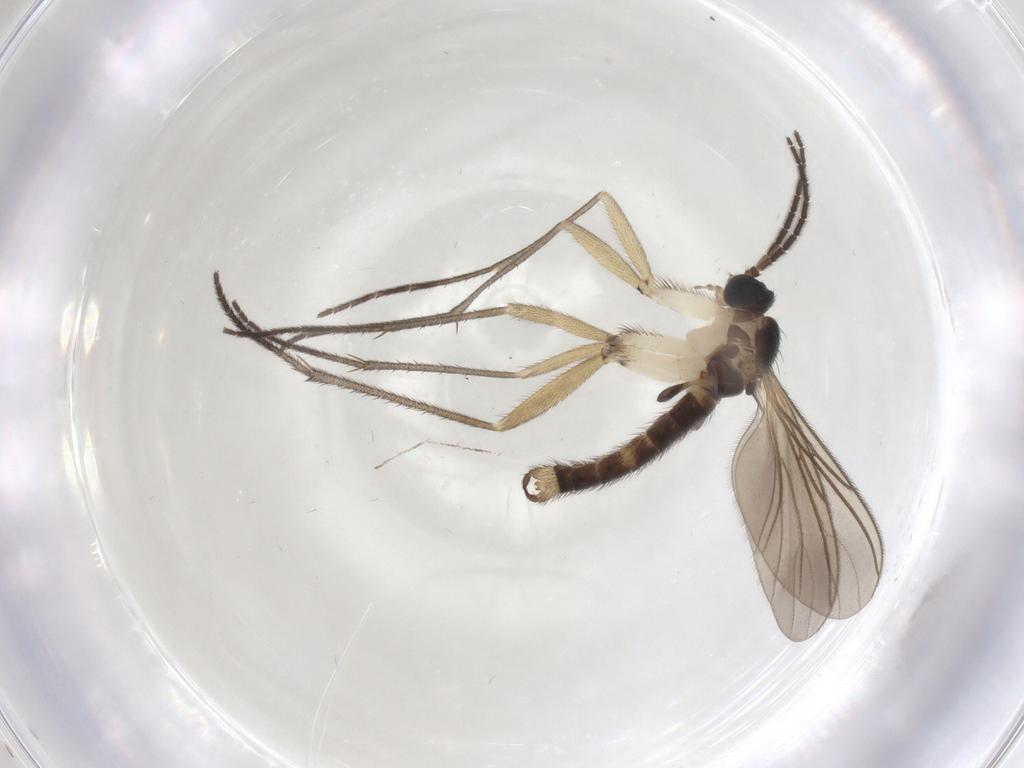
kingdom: Animalia
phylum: Arthropoda
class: Insecta
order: Diptera
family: Sciaridae
